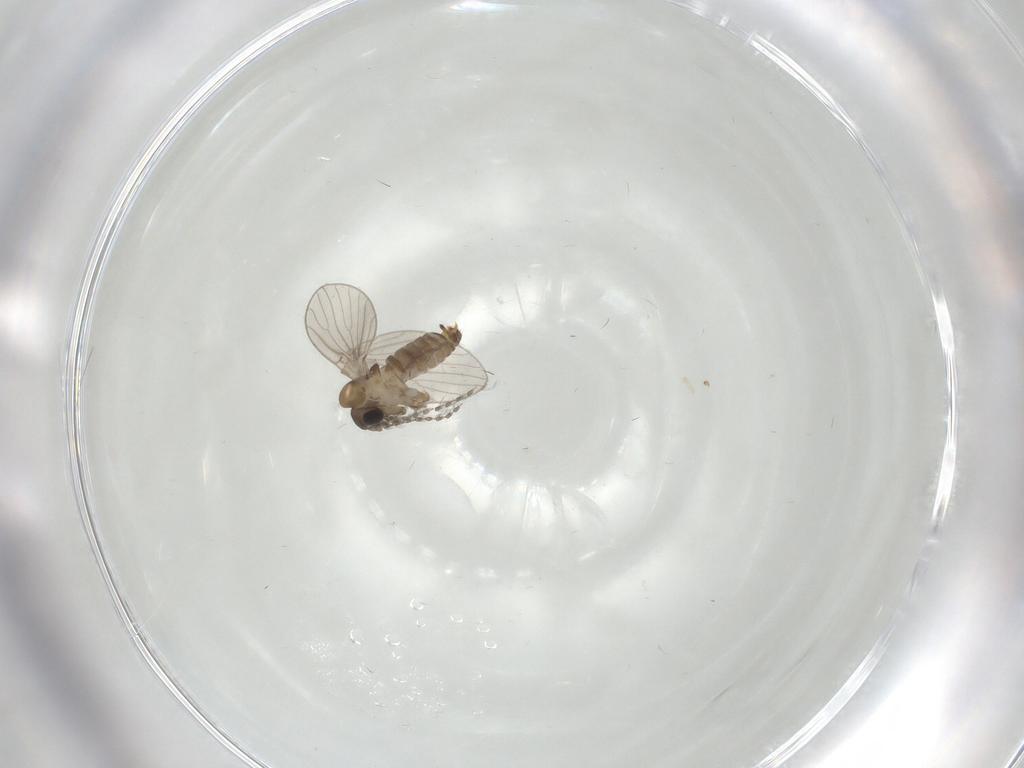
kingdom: Animalia
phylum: Arthropoda
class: Insecta
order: Diptera
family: Psychodidae
